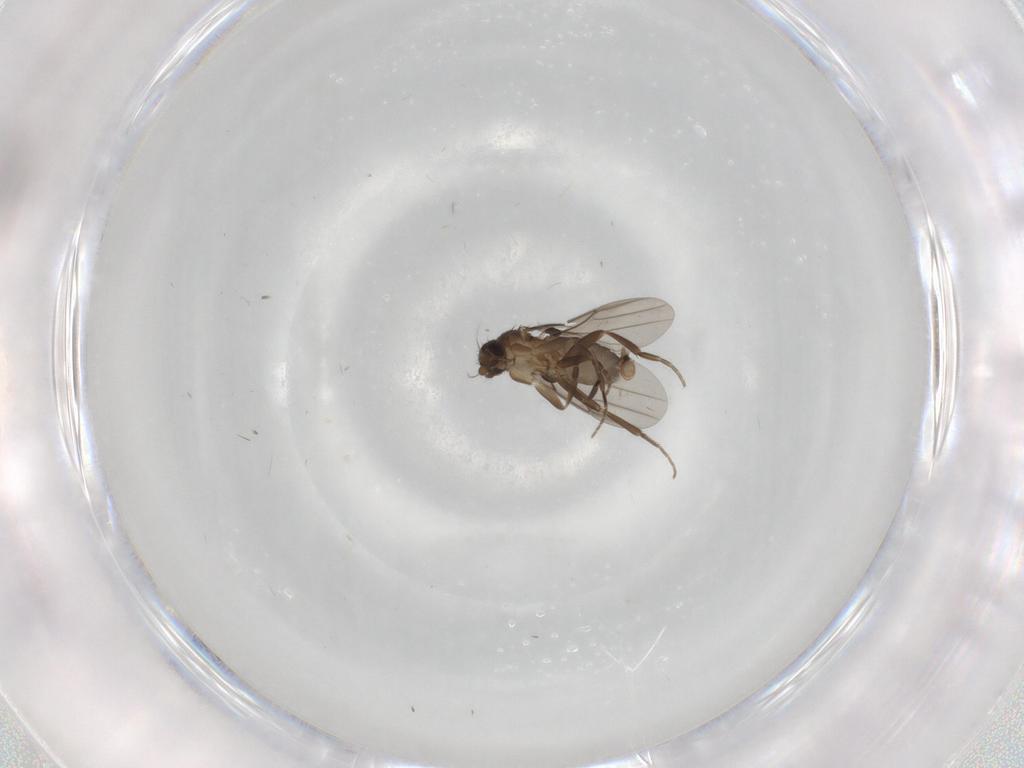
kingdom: Animalia
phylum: Arthropoda
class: Insecta
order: Diptera
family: Phoridae
